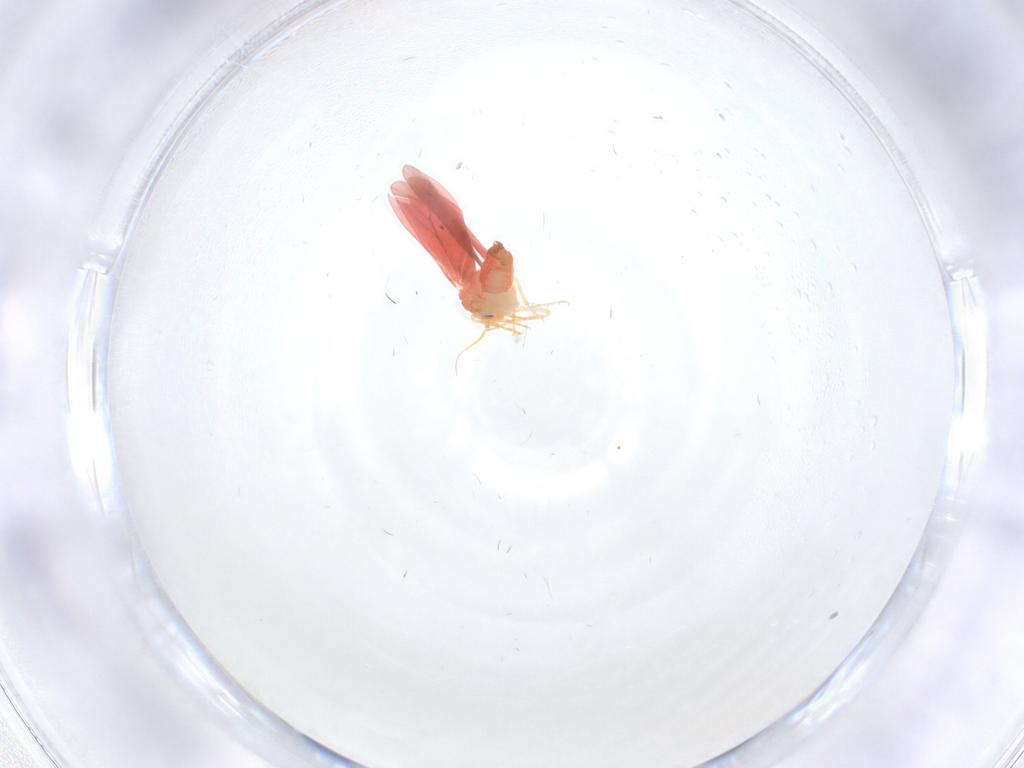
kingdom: Animalia
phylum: Arthropoda
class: Insecta
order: Hemiptera
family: Aleyrodidae
